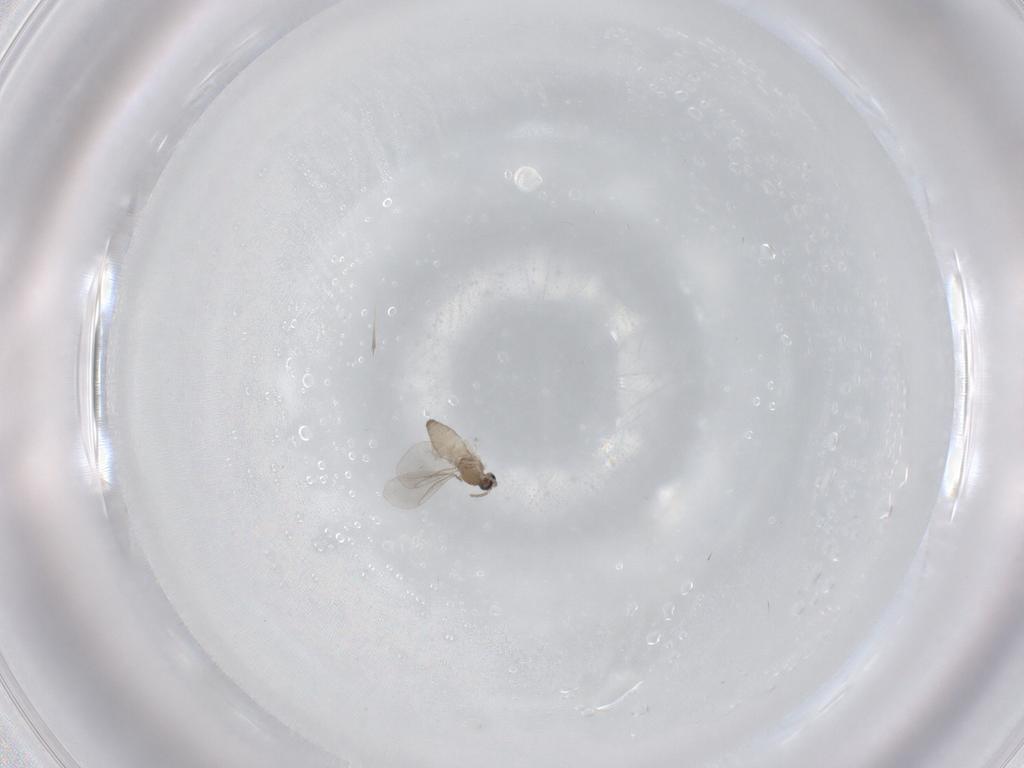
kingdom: Animalia
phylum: Arthropoda
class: Insecta
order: Diptera
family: Cecidomyiidae
